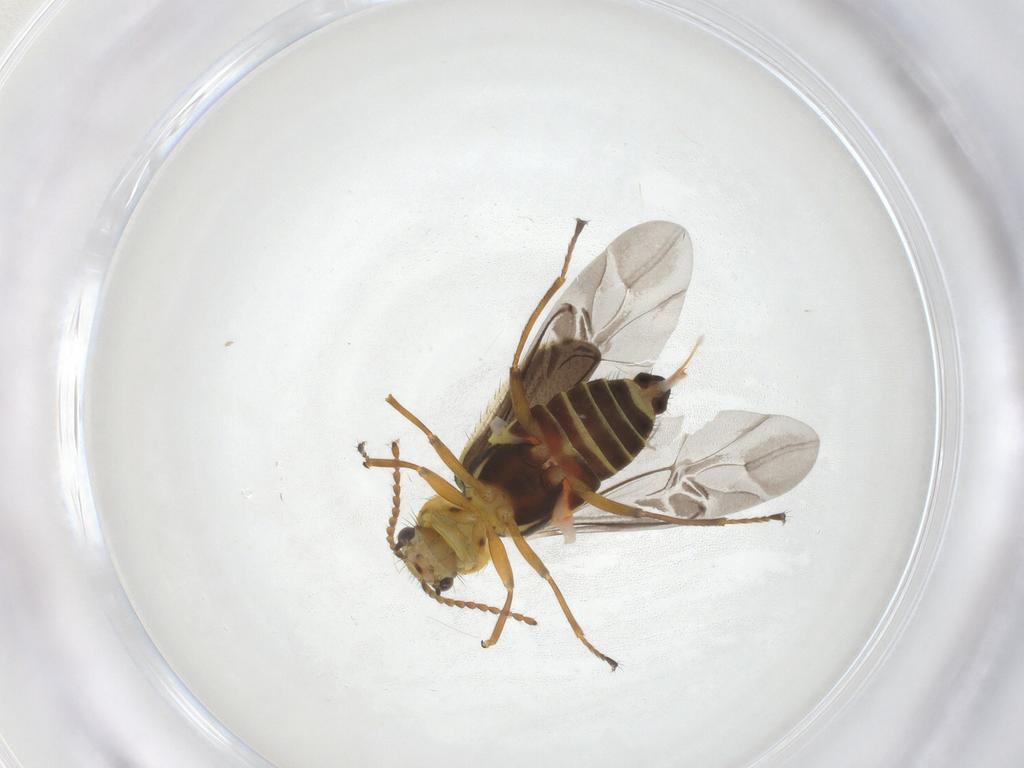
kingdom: Animalia
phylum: Arthropoda
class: Insecta
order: Coleoptera
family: Melyridae
